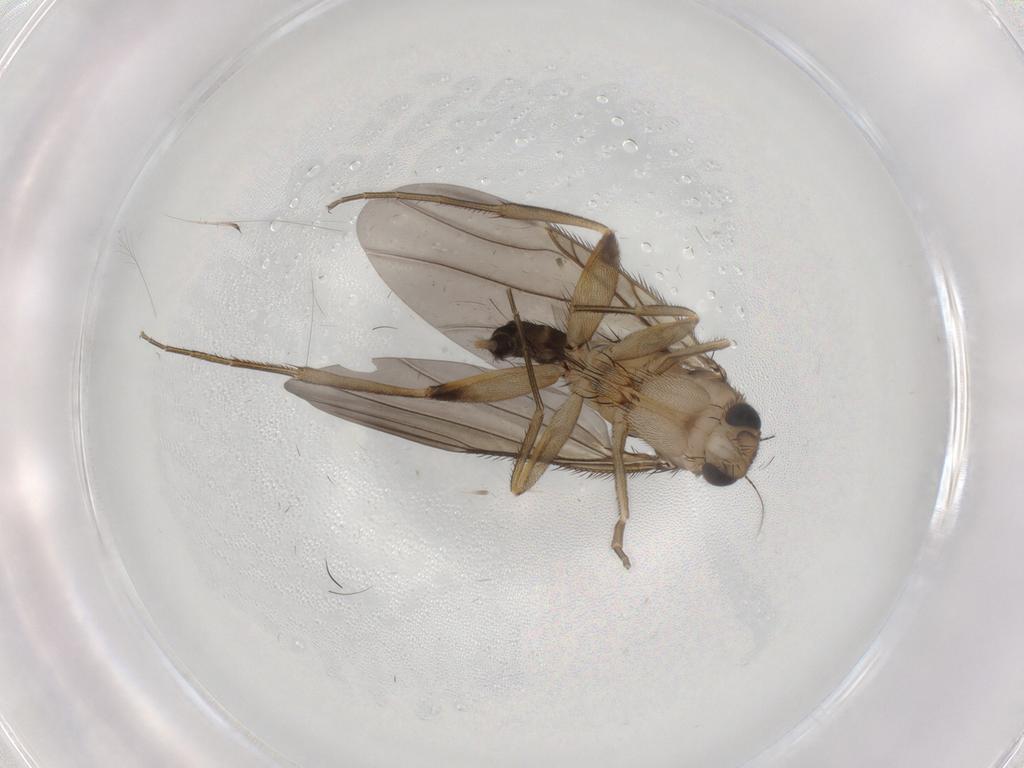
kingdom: Animalia
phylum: Arthropoda
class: Insecta
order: Diptera
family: Phoridae
